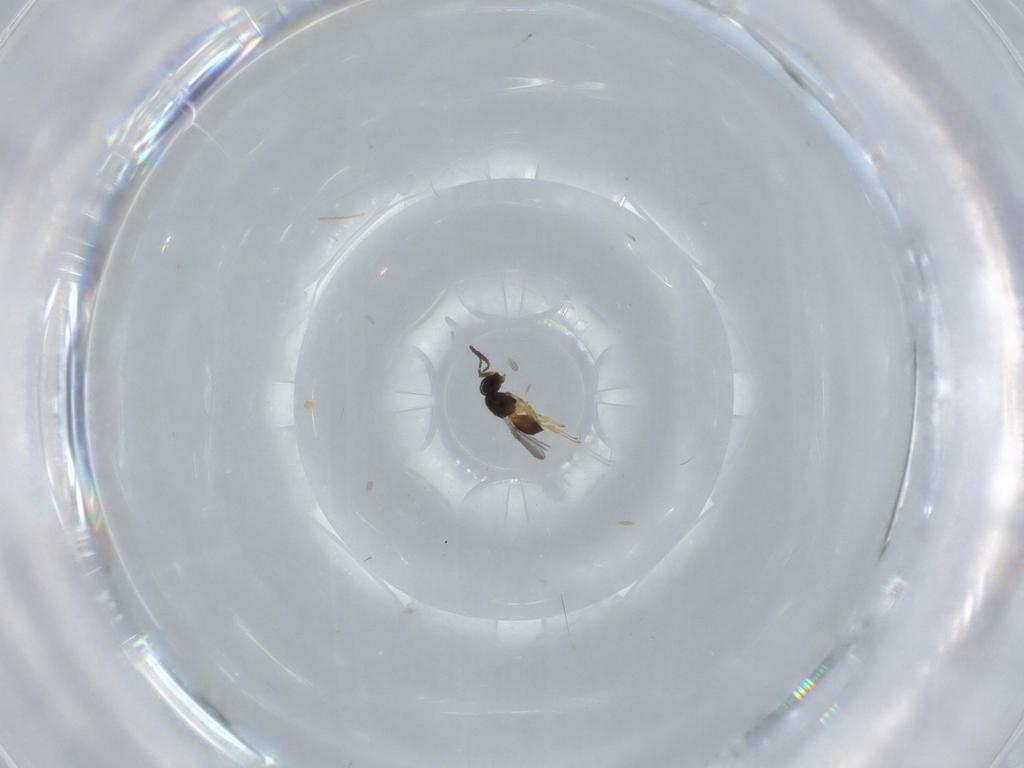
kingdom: Animalia
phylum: Arthropoda
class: Insecta
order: Hymenoptera
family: Scelionidae
